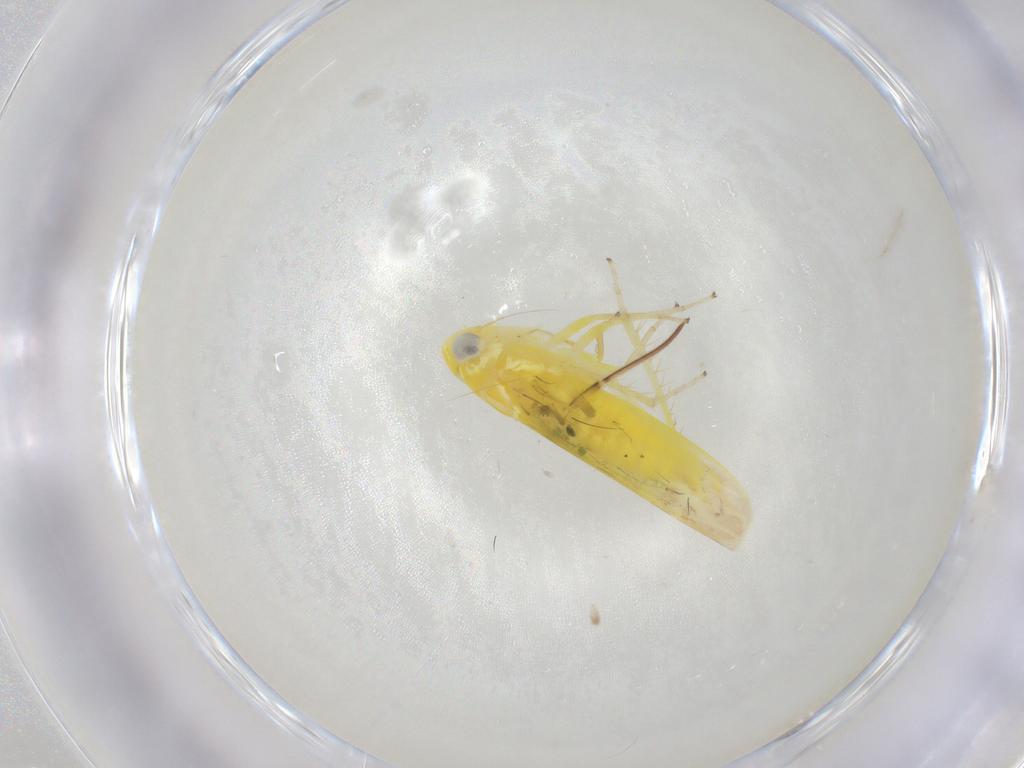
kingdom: Animalia
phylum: Arthropoda
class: Insecta
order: Hemiptera
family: Cicadellidae
